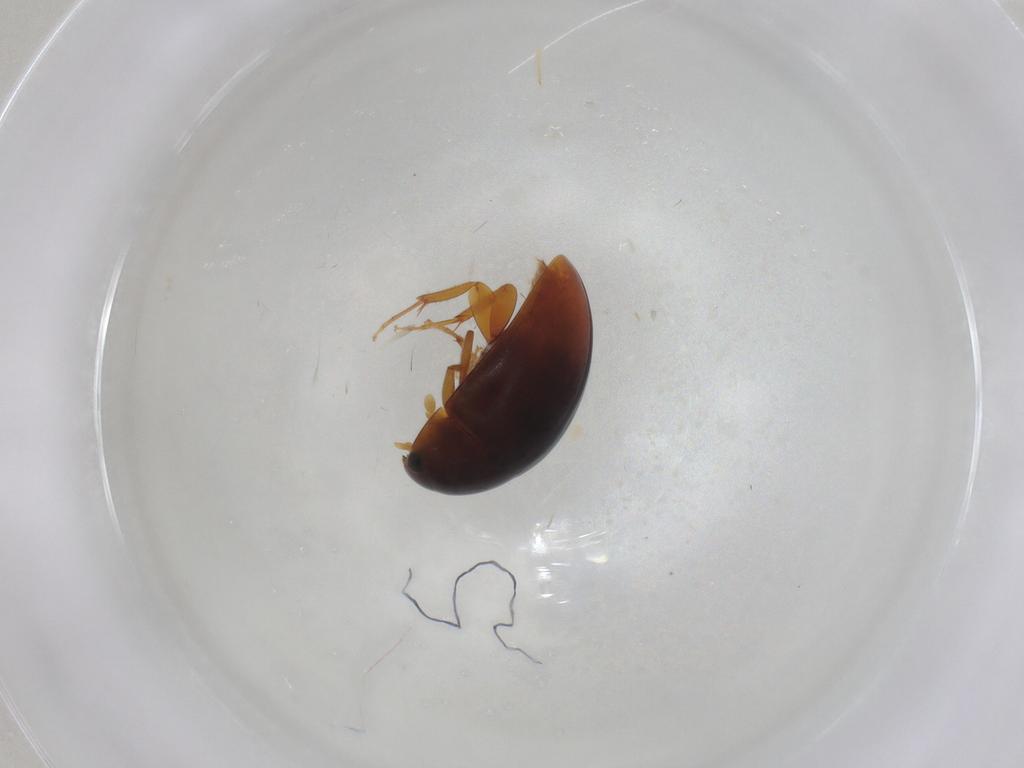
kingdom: Animalia
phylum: Arthropoda
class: Insecta
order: Coleoptera
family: Phalacridae
